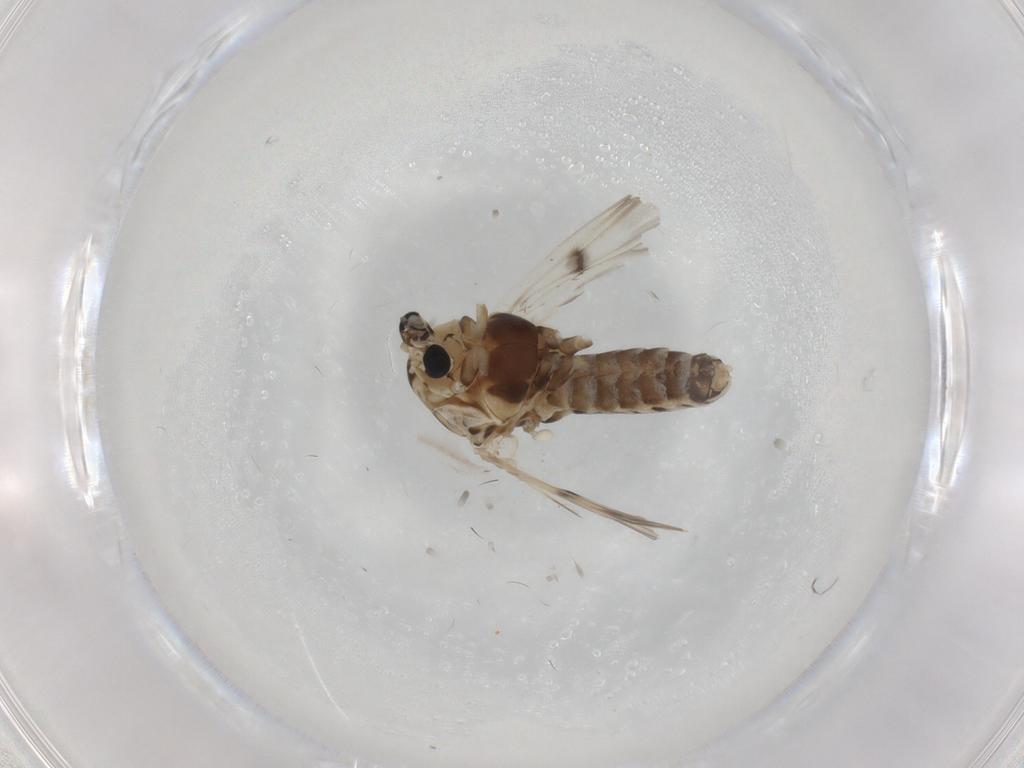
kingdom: Animalia
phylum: Arthropoda
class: Insecta
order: Diptera
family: Chironomidae
